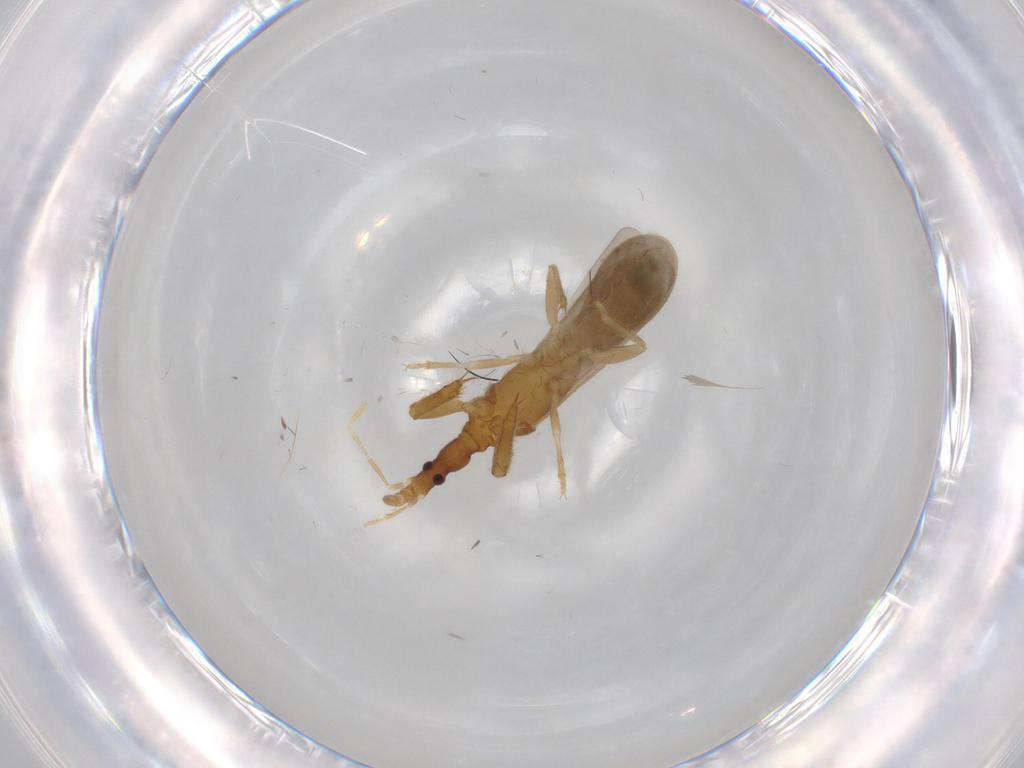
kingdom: Animalia
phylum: Arthropoda
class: Insecta
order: Hemiptera
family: Enicocephalidae
